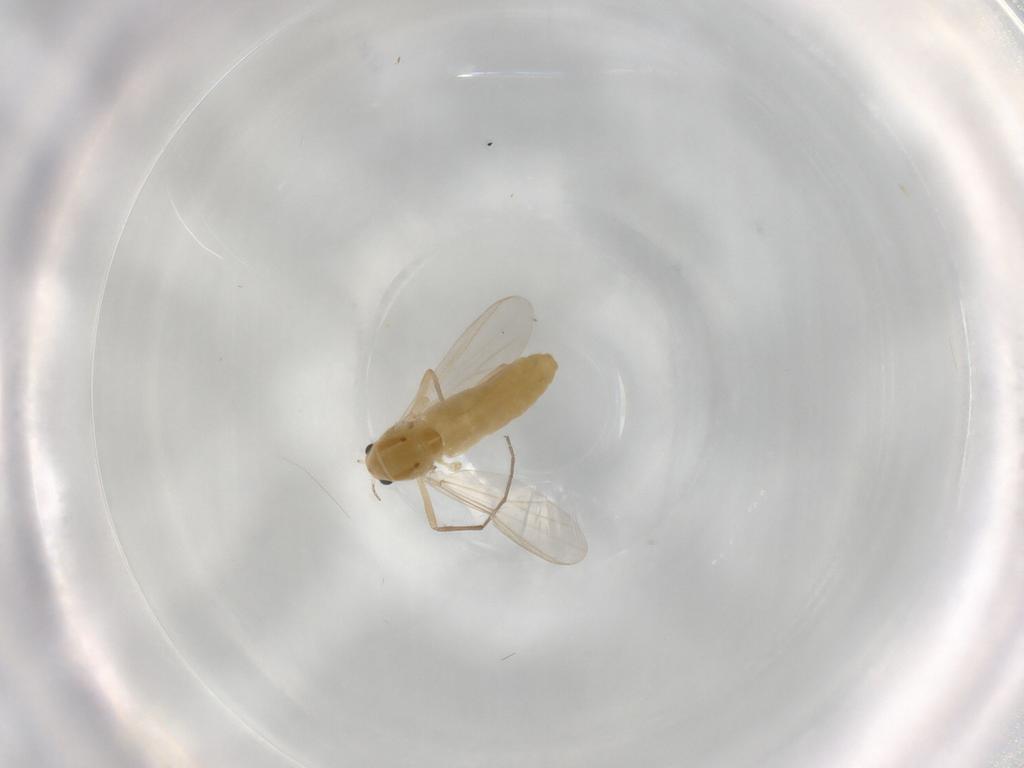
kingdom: Animalia
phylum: Arthropoda
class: Insecta
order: Diptera
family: Chironomidae
